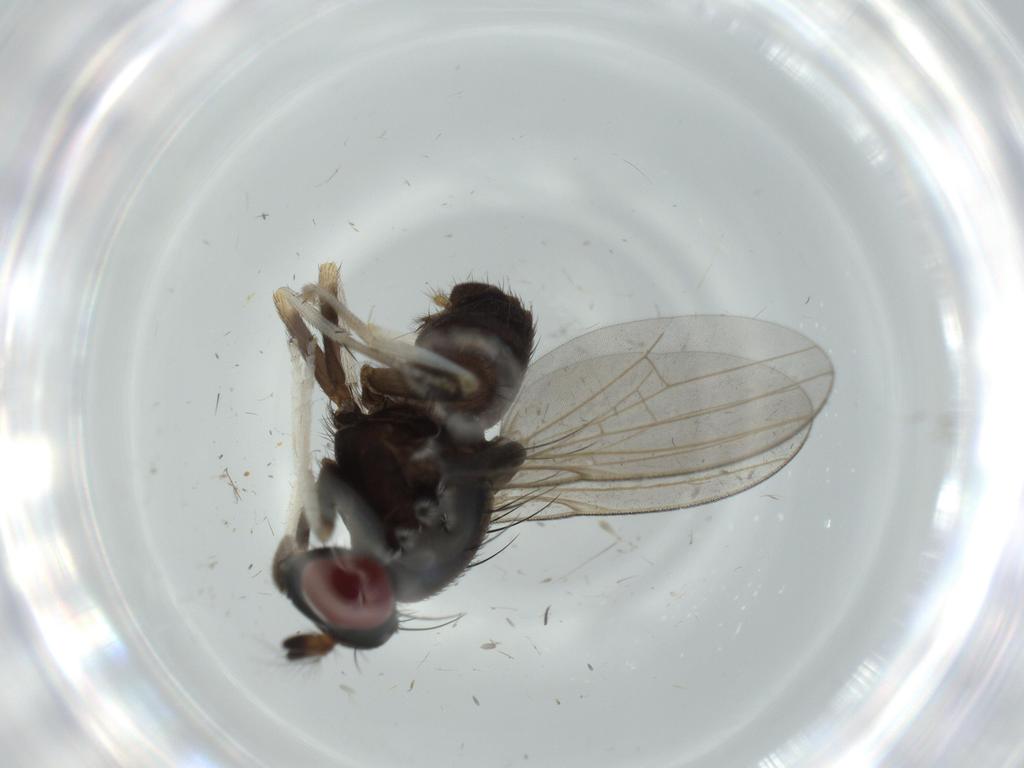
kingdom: Animalia
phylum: Arthropoda
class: Insecta
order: Diptera
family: Lauxaniidae
